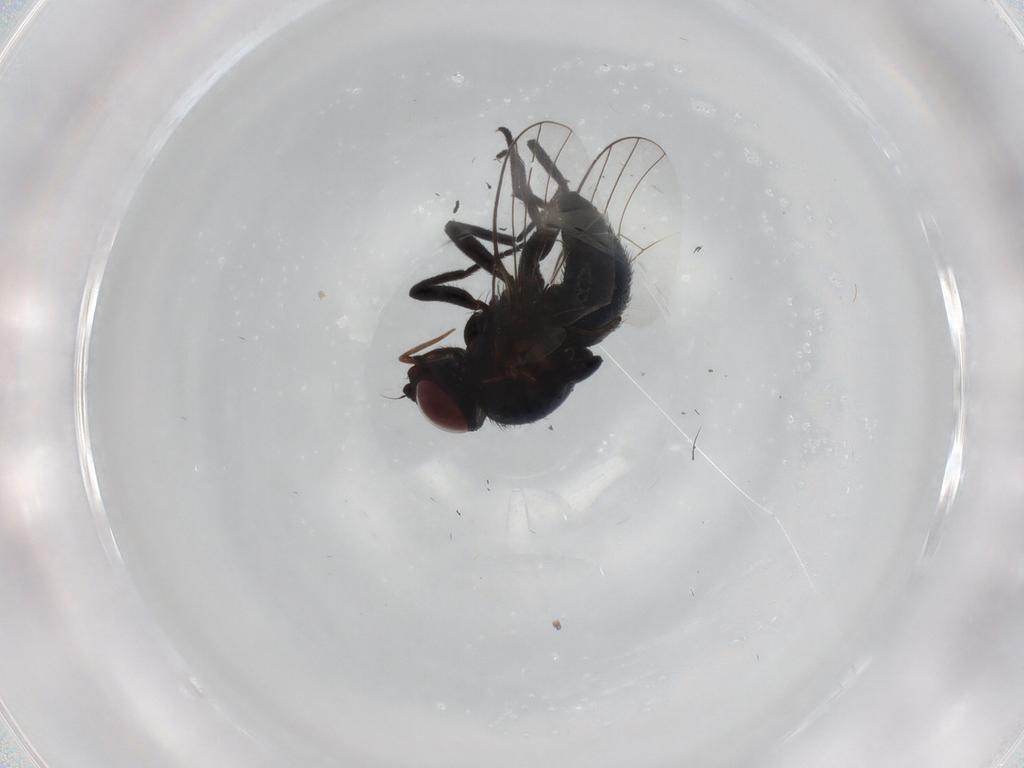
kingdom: Animalia
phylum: Arthropoda
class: Insecta
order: Diptera
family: Agromyzidae
